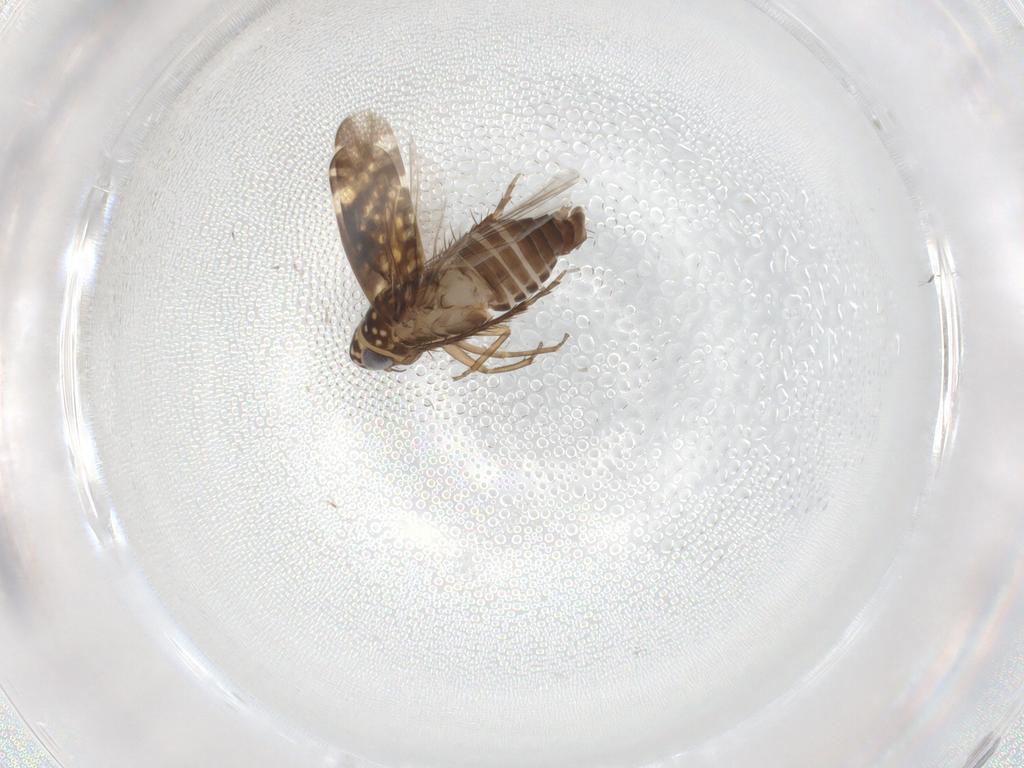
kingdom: Animalia
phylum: Arthropoda
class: Insecta
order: Hemiptera
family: Cicadellidae
